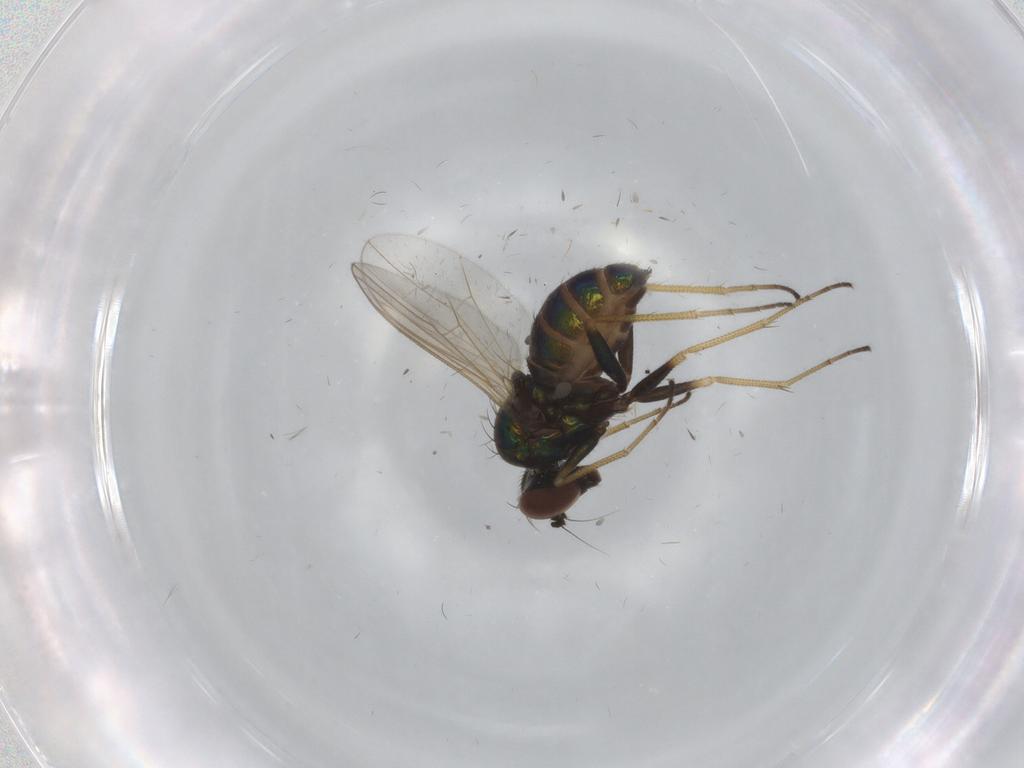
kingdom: Animalia
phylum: Arthropoda
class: Insecta
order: Diptera
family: Dolichopodidae
